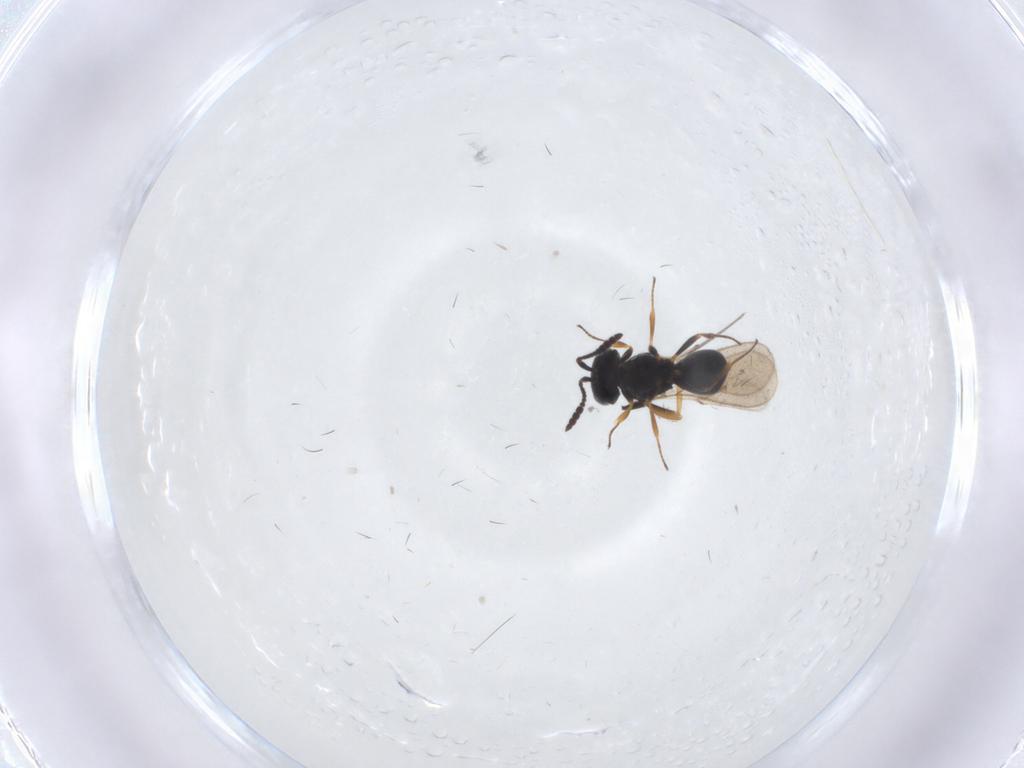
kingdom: Animalia
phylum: Arthropoda
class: Insecta
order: Hymenoptera
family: Scelionidae
